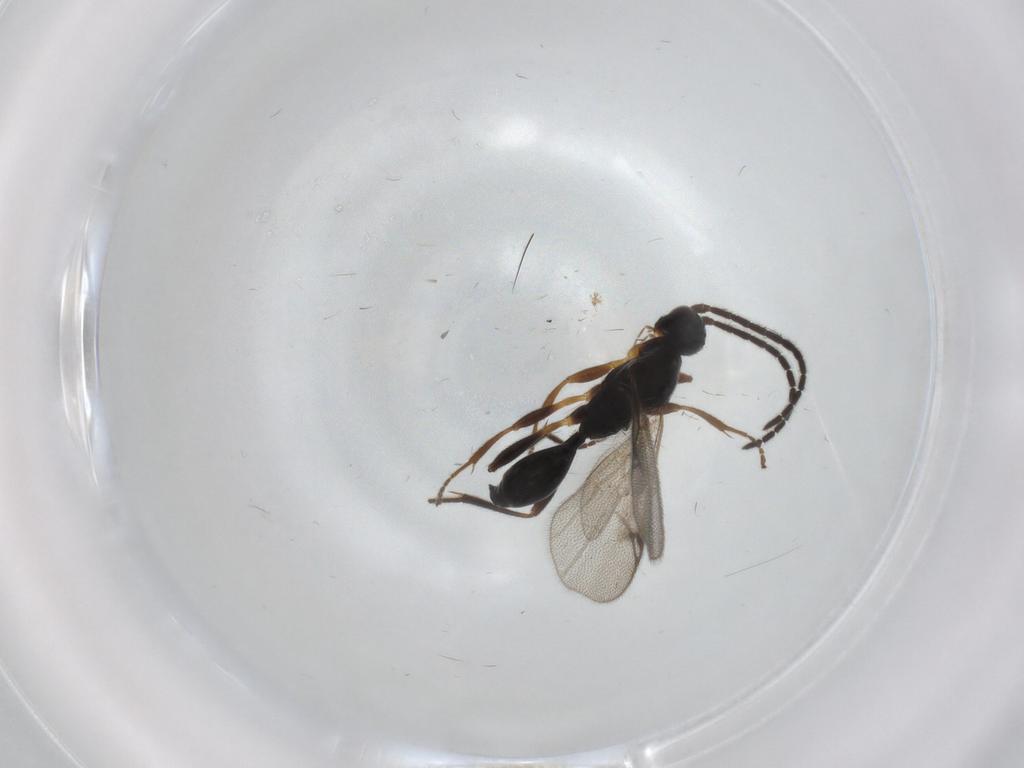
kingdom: Animalia
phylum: Arthropoda
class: Insecta
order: Hymenoptera
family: Proctotrupidae
